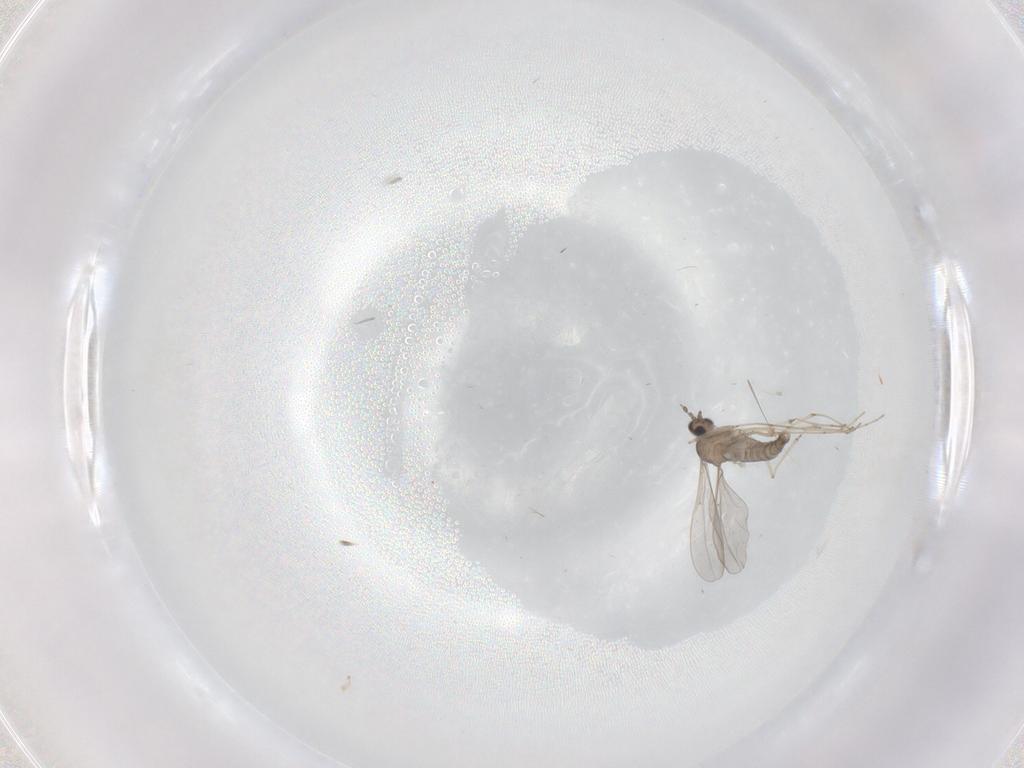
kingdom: Animalia
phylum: Arthropoda
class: Insecta
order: Diptera
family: Cecidomyiidae
